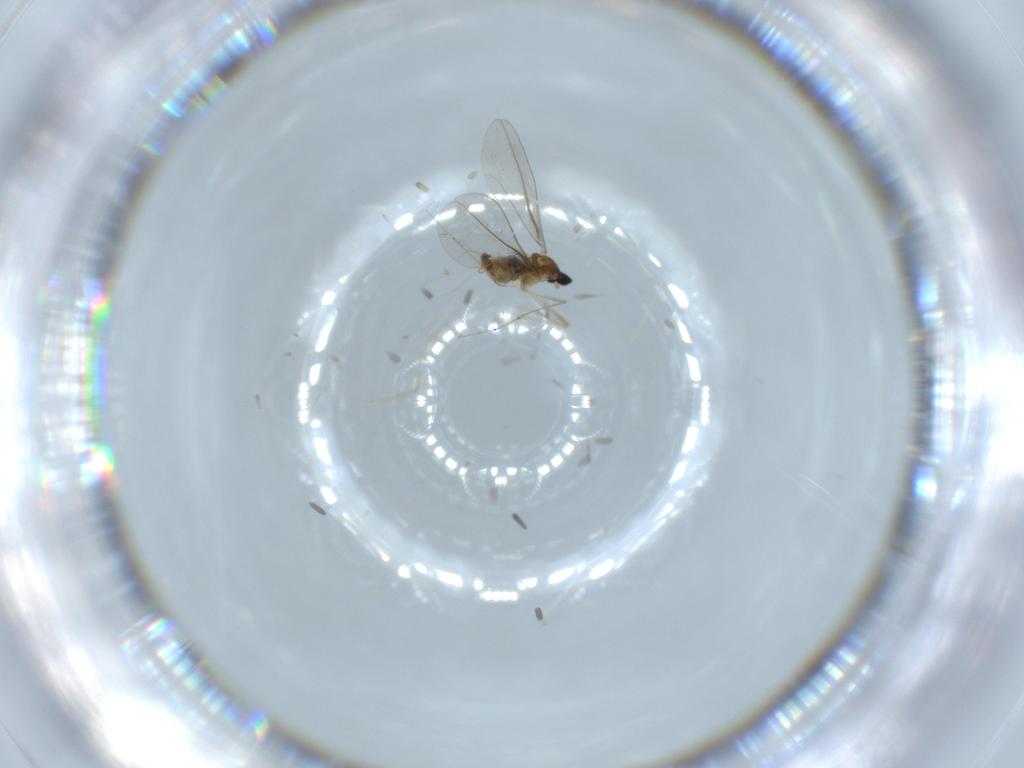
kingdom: Animalia
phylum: Arthropoda
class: Insecta
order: Diptera
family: Cecidomyiidae
